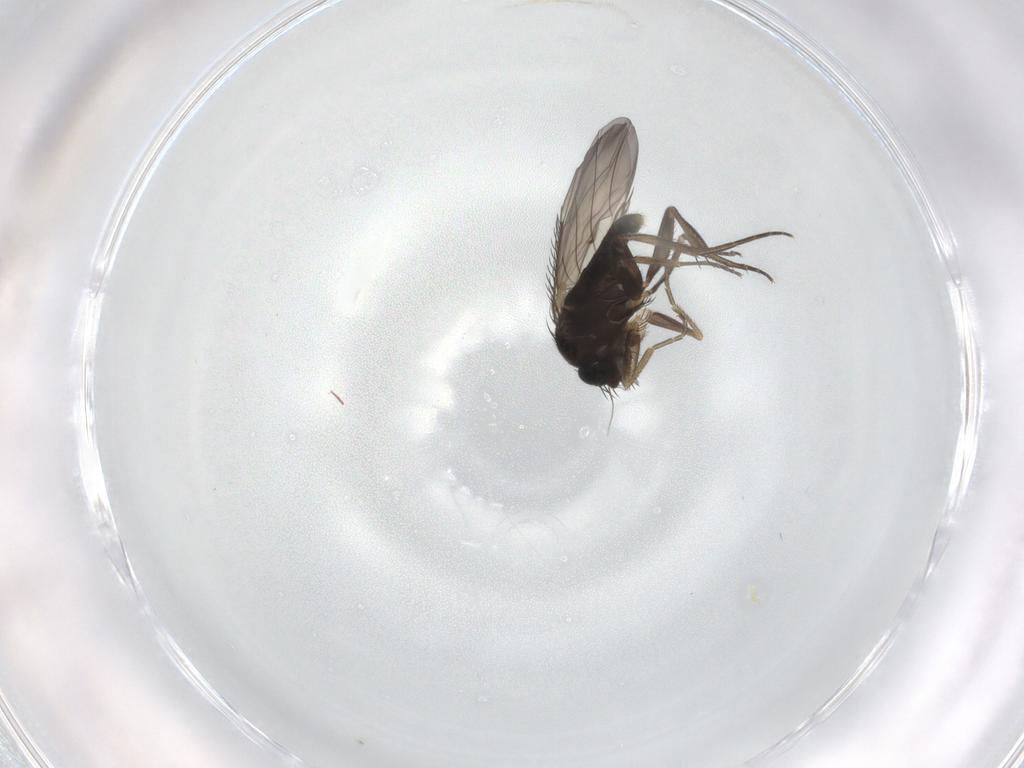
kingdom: Animalia
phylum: Arthropoda
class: Insecta
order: Diptera
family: Phoridae
